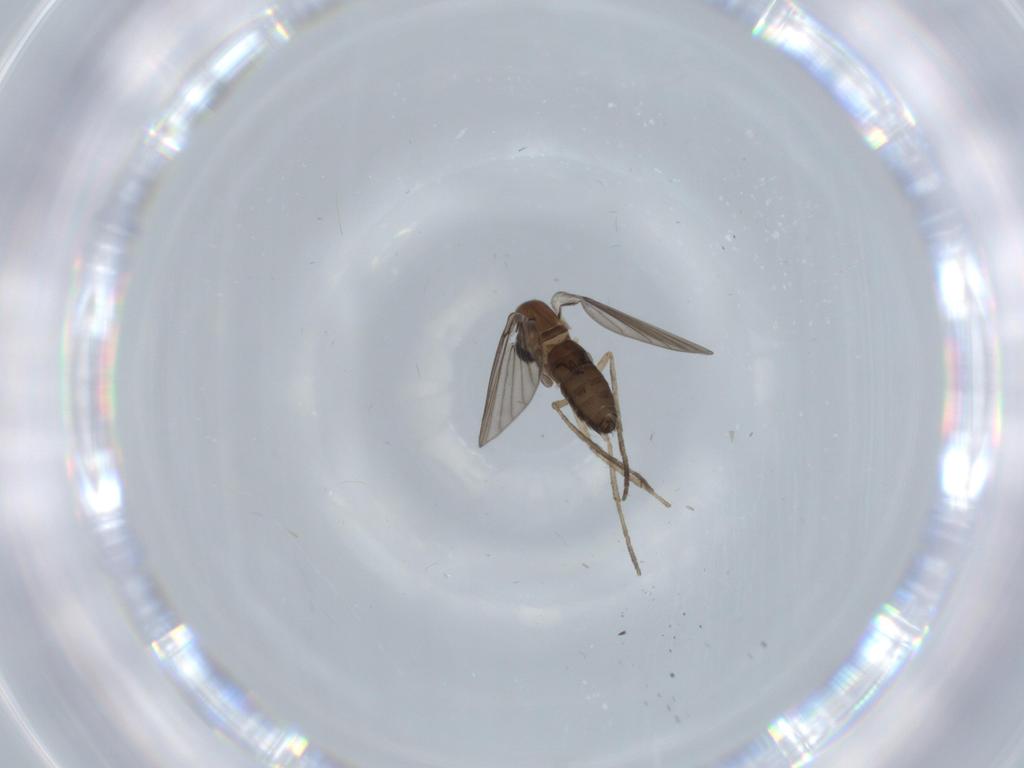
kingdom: Animalia
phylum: Arthropoda
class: Insecta
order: Diptera
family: Psychodidae
